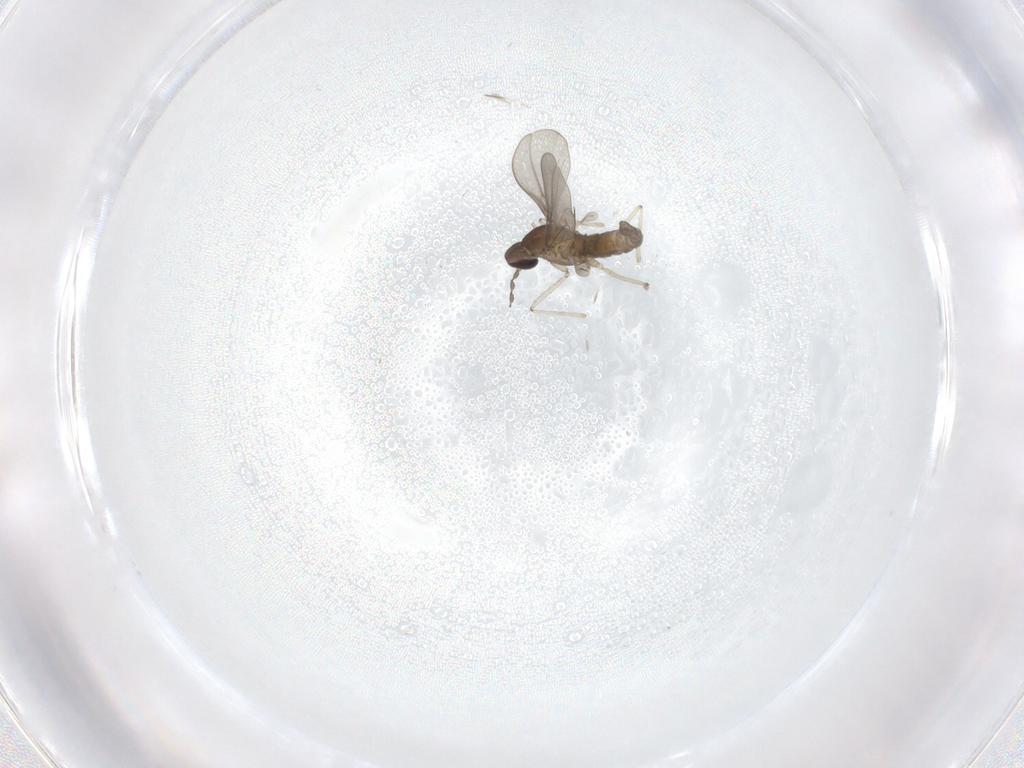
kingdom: Animalia
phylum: Arthropoda
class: Insecta
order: Diptera
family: Cecidomyiidae
